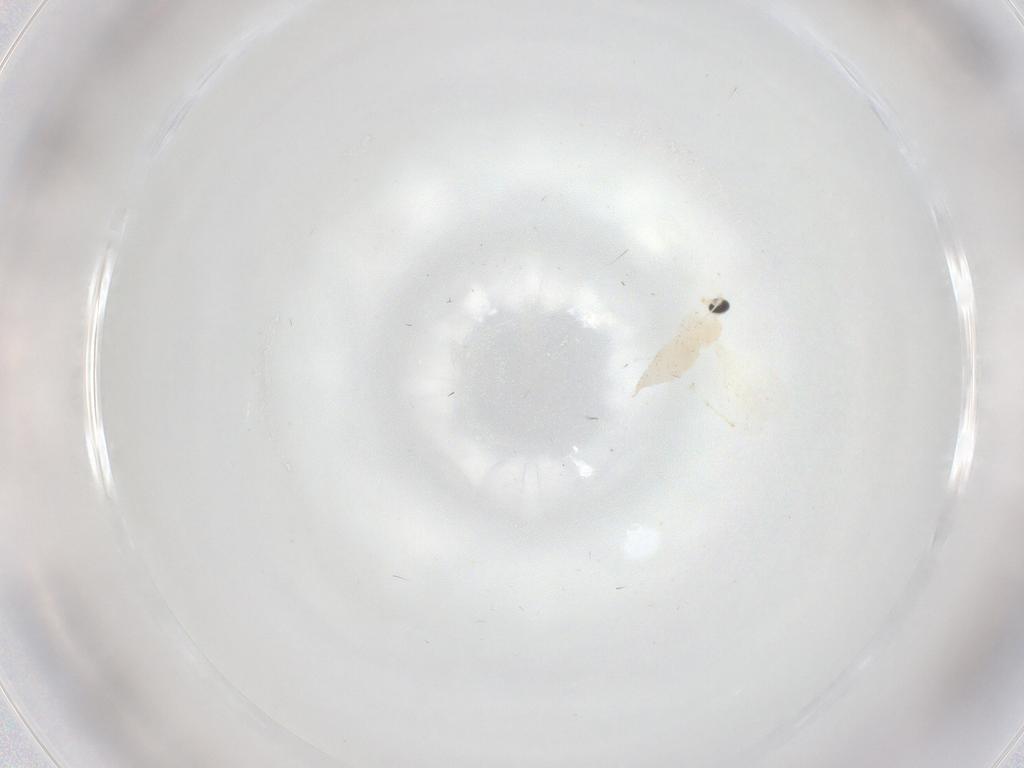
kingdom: Animalia
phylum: Arthropoda
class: Insecta
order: Diptera
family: Cecidomyiidae
